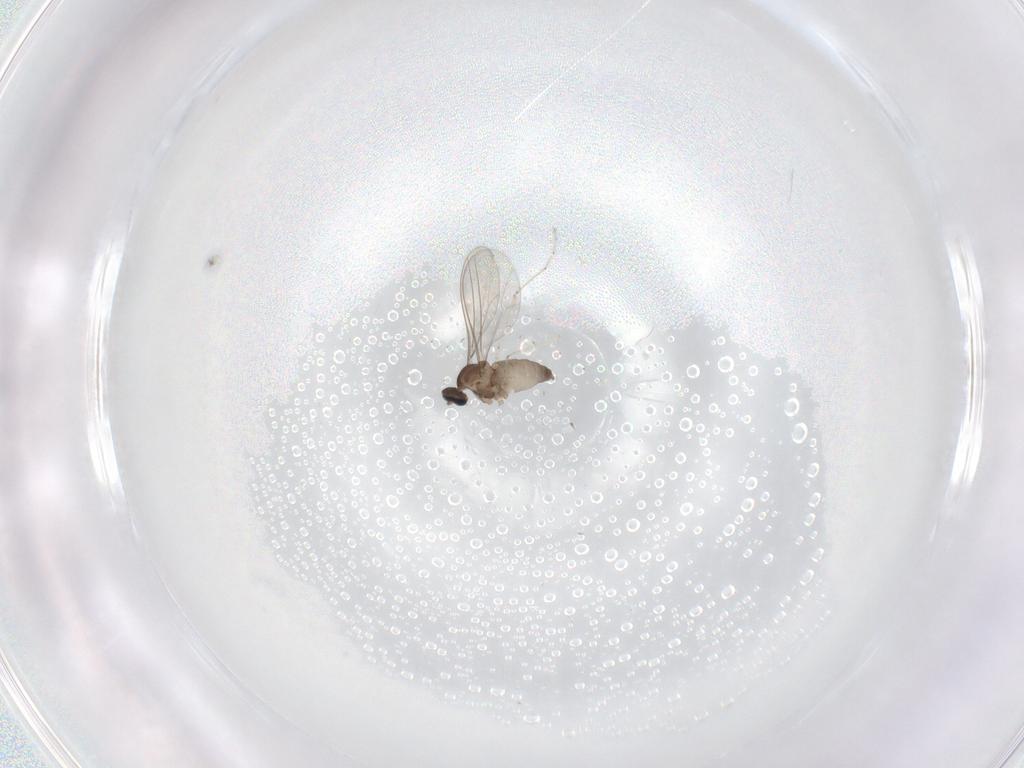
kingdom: Animalia
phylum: Arthropoda
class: Insecta
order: Diptera
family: Cecidomyiidae
